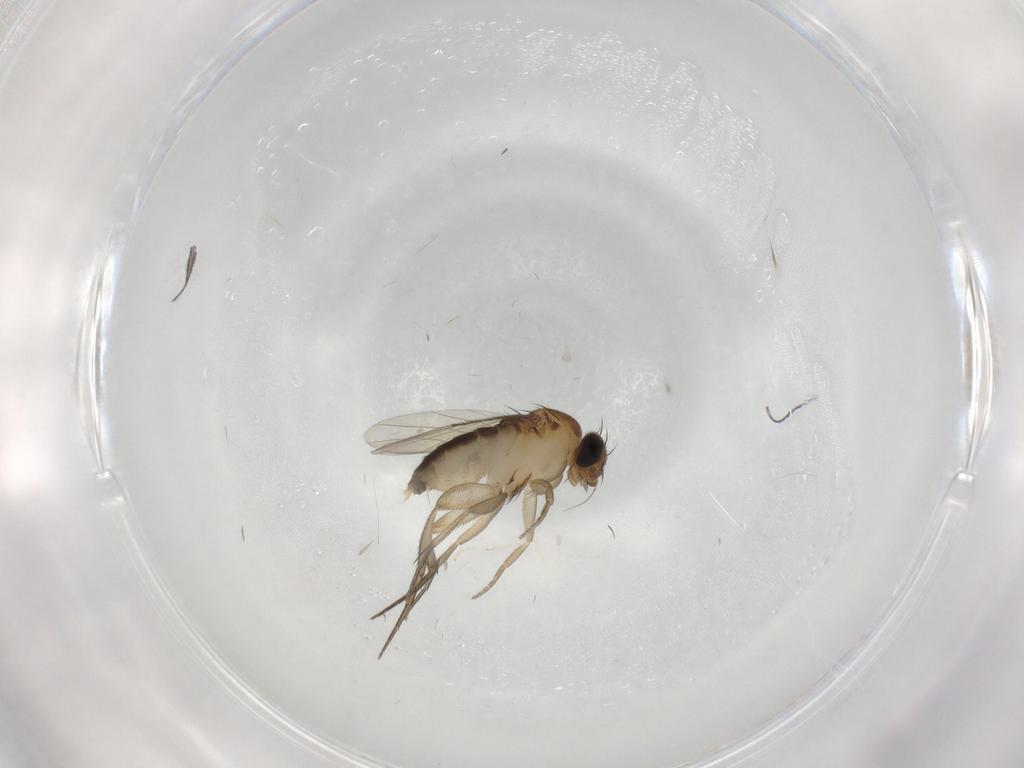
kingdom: Animalia
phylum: Arthropoda
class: Insecta
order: Diptera
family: Phoridae
